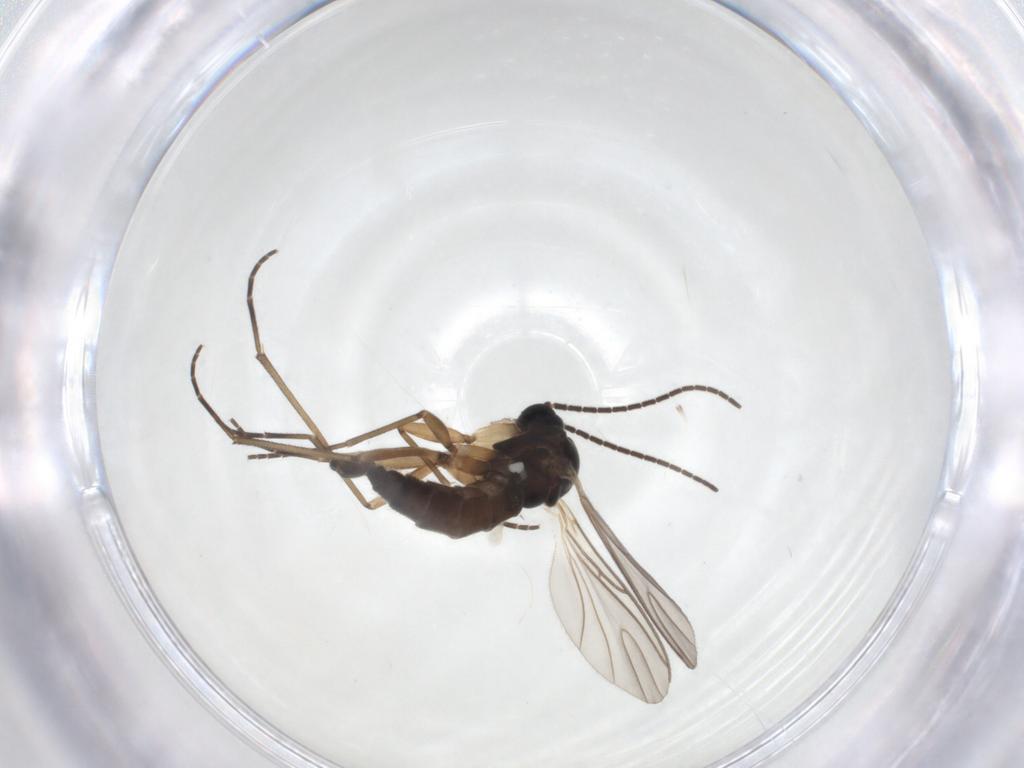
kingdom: Animalia
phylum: Arthropoda
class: Insecta
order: Diptera
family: Sciaridae
